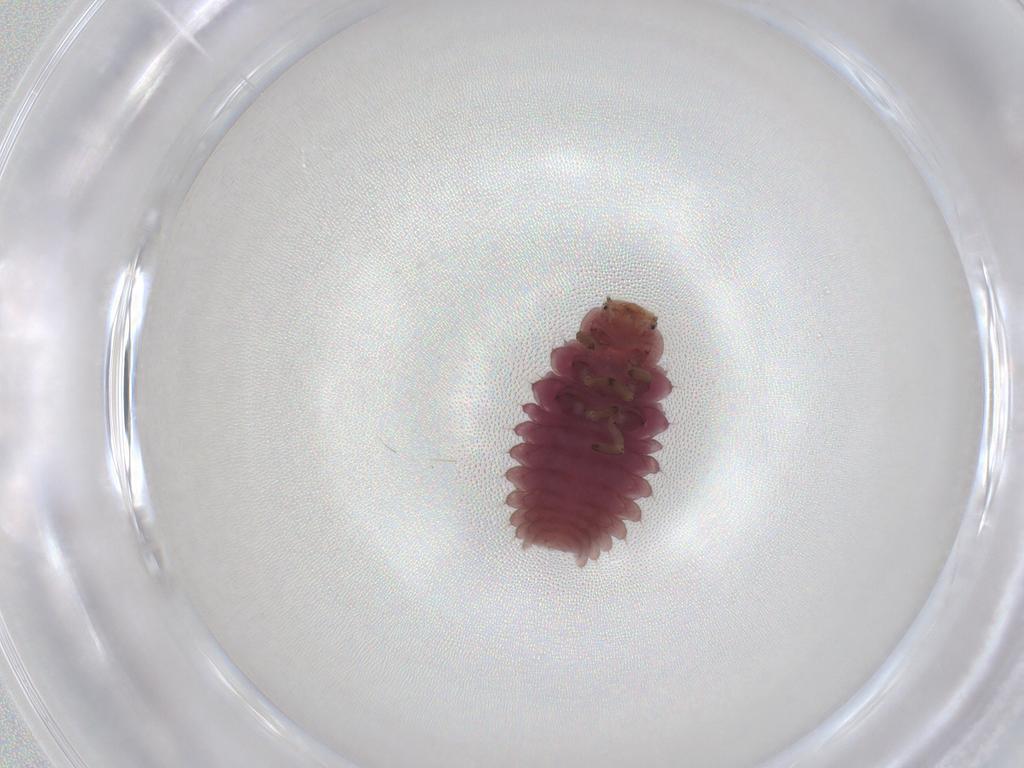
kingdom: Animalia
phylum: Arthropoda
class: Insecta
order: Coleoptera
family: Coccinellidae
